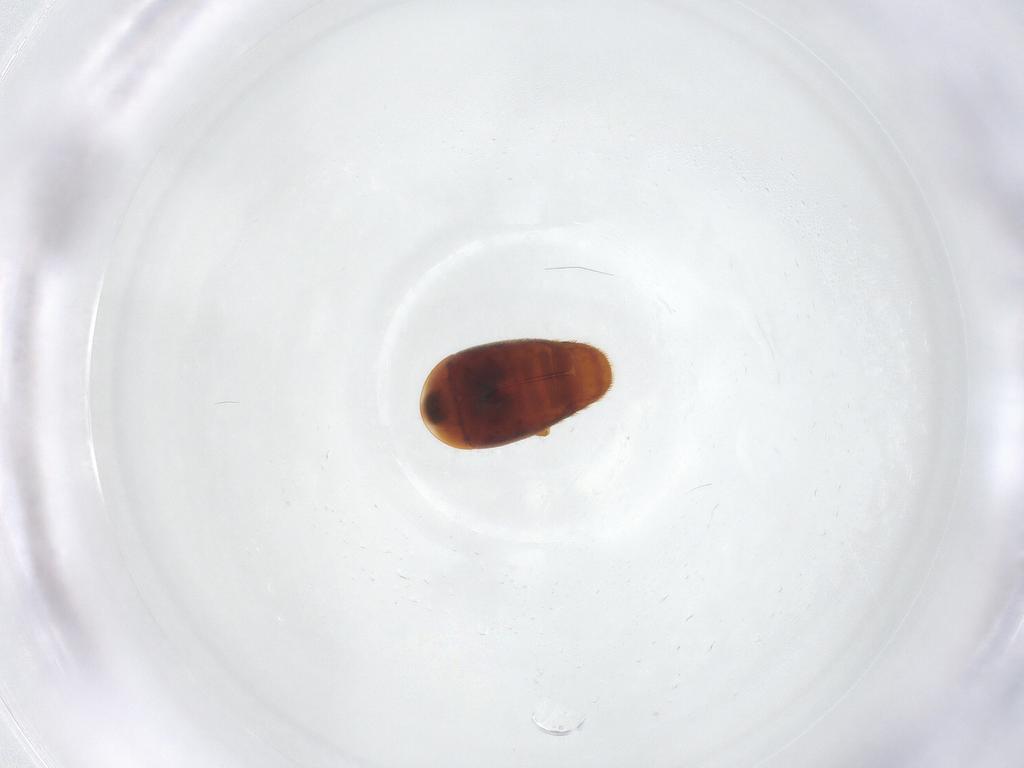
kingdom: Animalia
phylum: Arthropoda
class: Insecta
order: Coleoptera
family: Corylophidae
